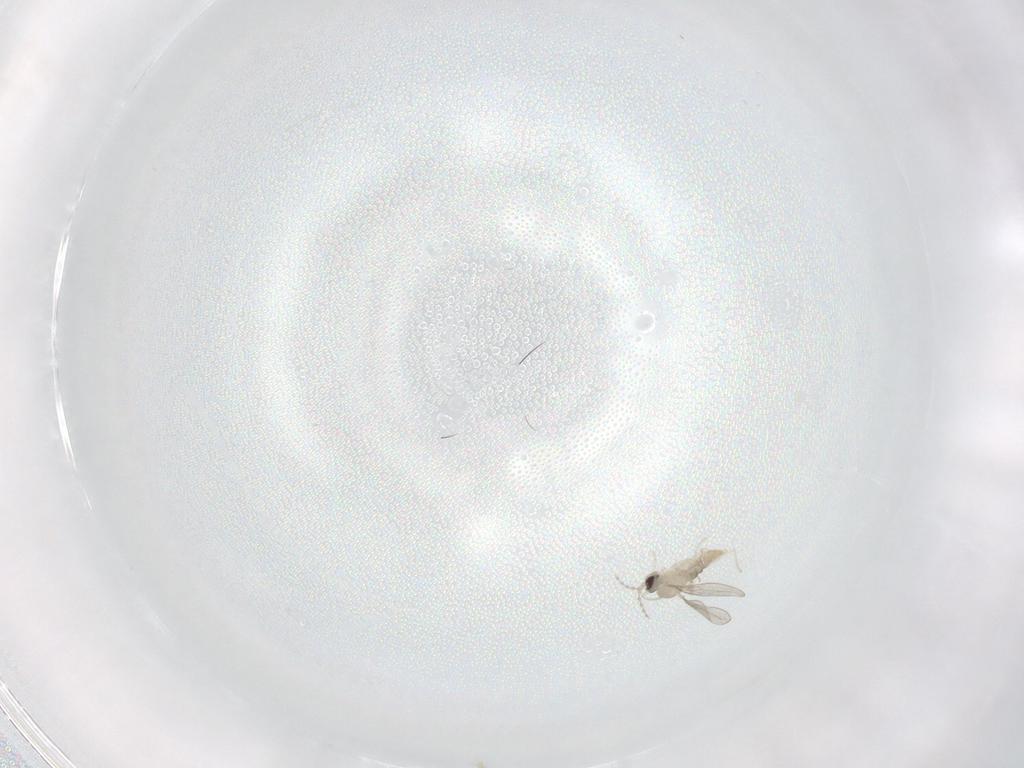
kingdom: Animalia
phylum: Arthropoda
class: Insecta
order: Diptera
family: Cecidomyiidae
